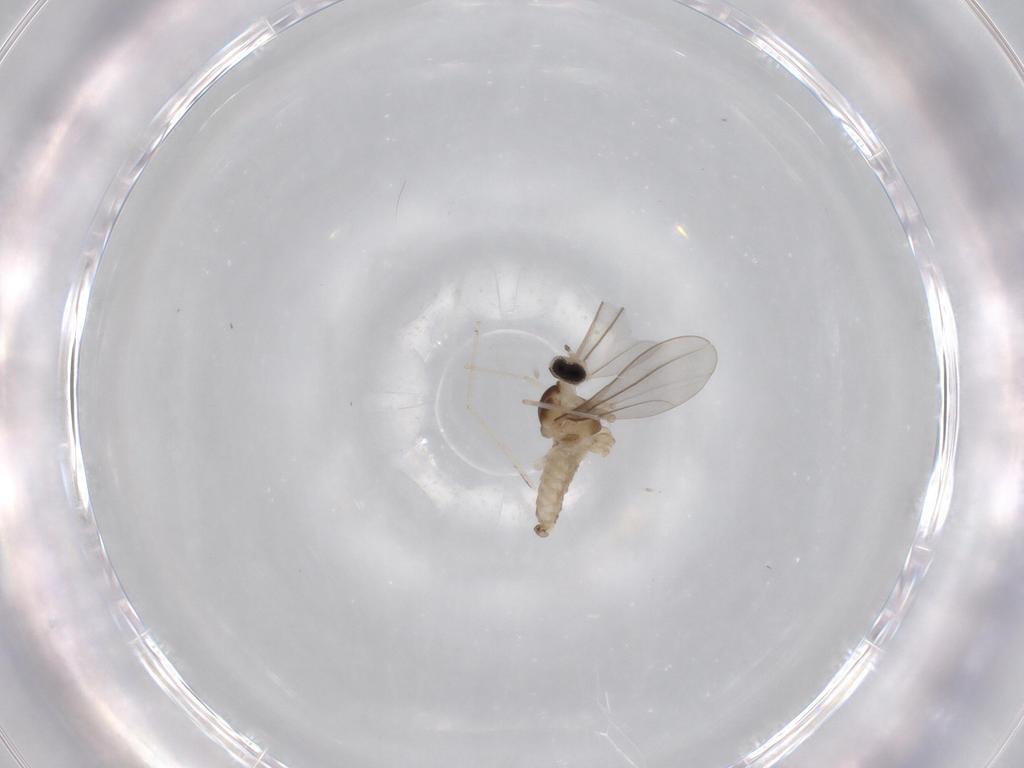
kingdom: Animalia
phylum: Arthropoda
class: Insecta
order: Diptera
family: Cecidomyiidae
